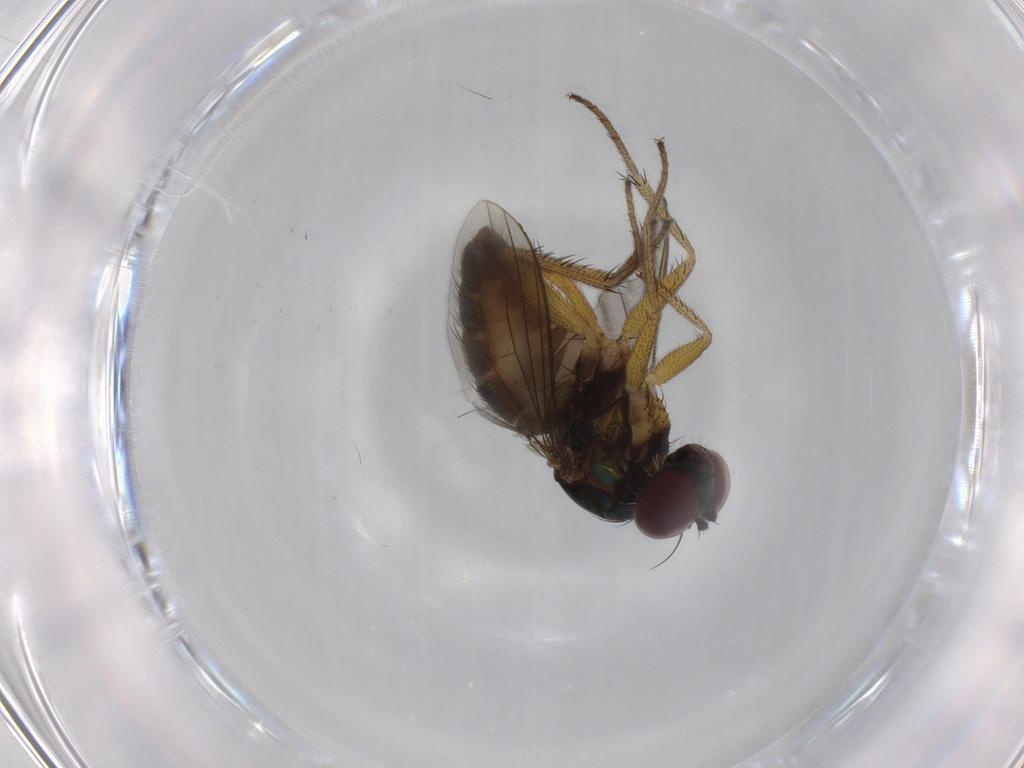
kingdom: Animalia
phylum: Arthropoda
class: Insecta
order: Diptera
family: Dolichopodidae
